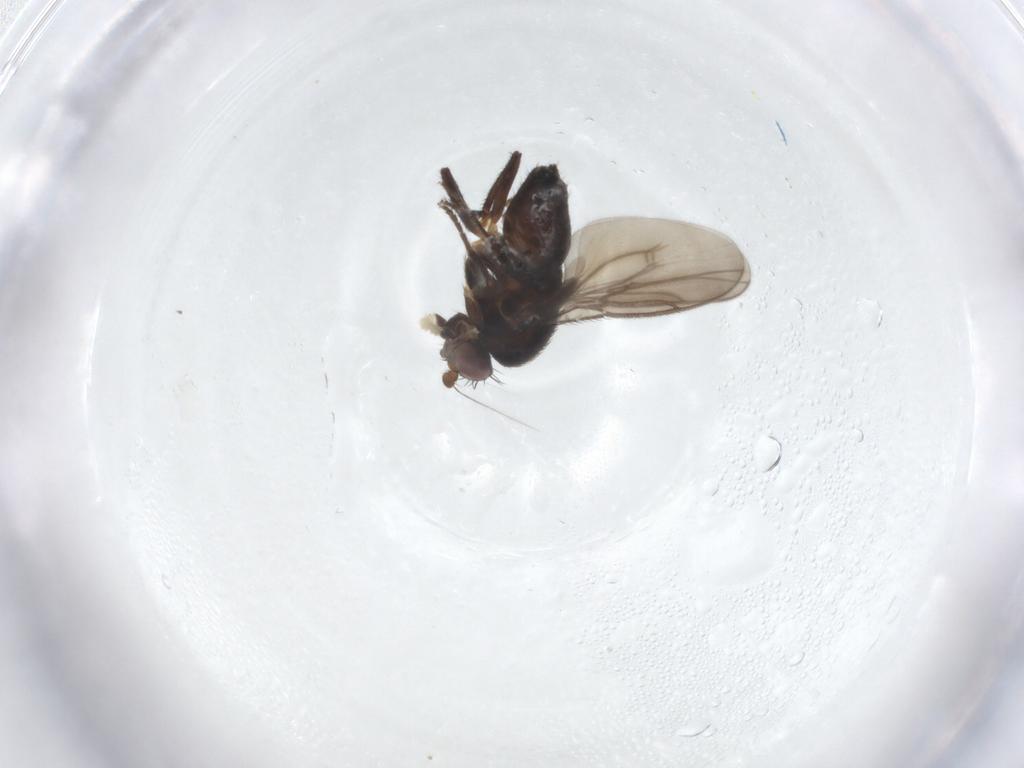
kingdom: Animalia
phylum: Arthropoda
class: Insecta
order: Diptera
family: Sphaeroceridae
